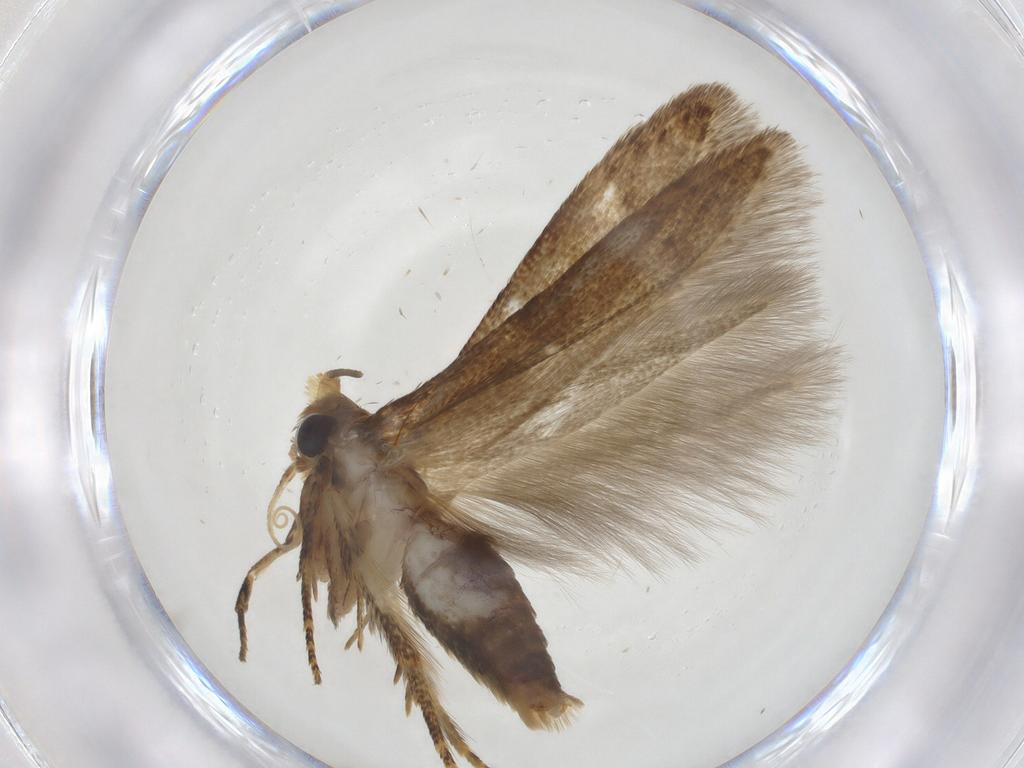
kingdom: Animalia
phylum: Arthropoda
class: Insecta
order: Lepidoptera
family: Blastobasidae
